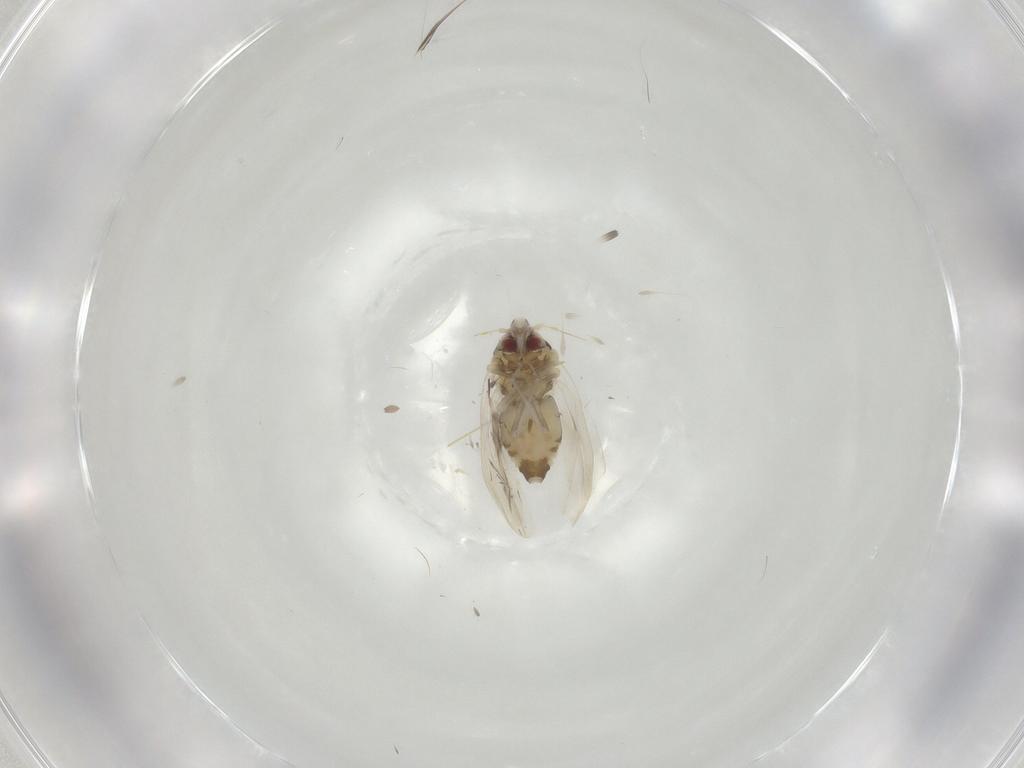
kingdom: Animalia
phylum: Arthropoda
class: Insecta
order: Hemiptera
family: Aleyrodidae
